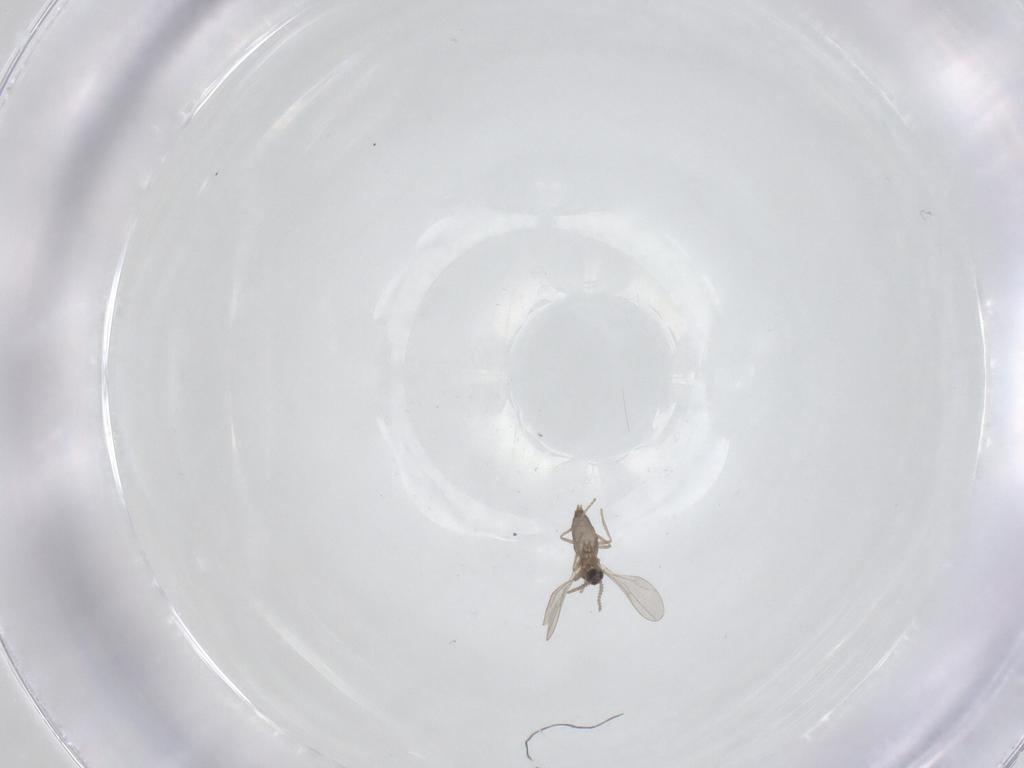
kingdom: Animalia
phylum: Arthropoda
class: Insecta
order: Diptera
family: Cecidomyiidae
